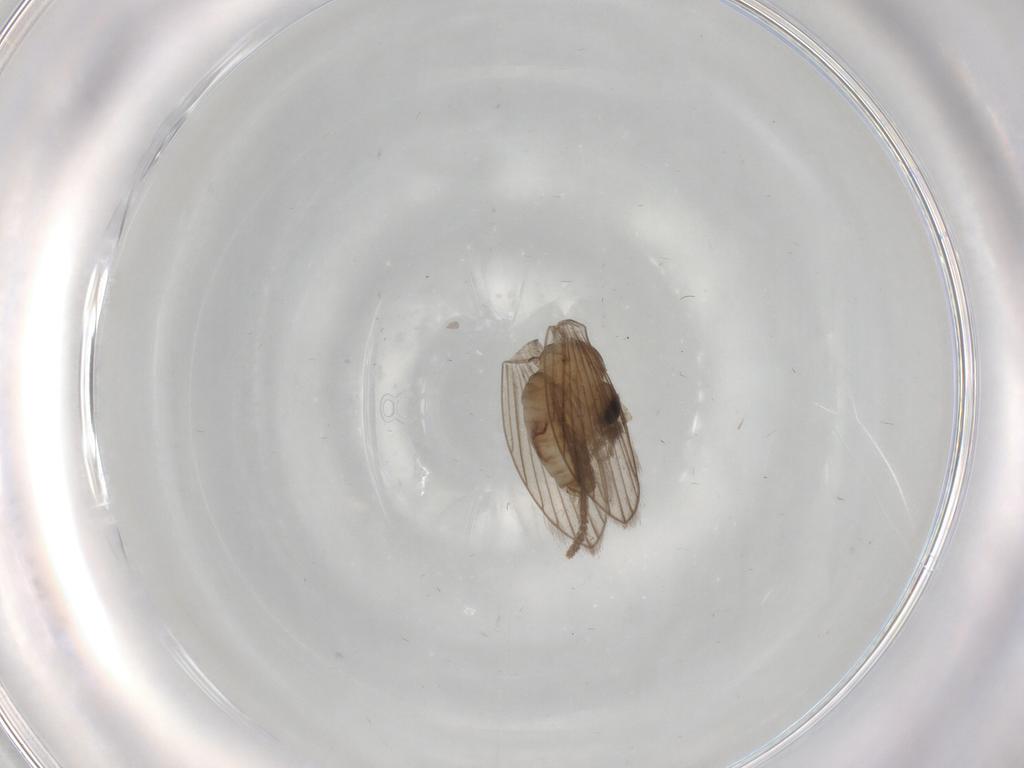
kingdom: Animalia
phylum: Arthropoda
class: Insecta
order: Diptera
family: Psychodidae
